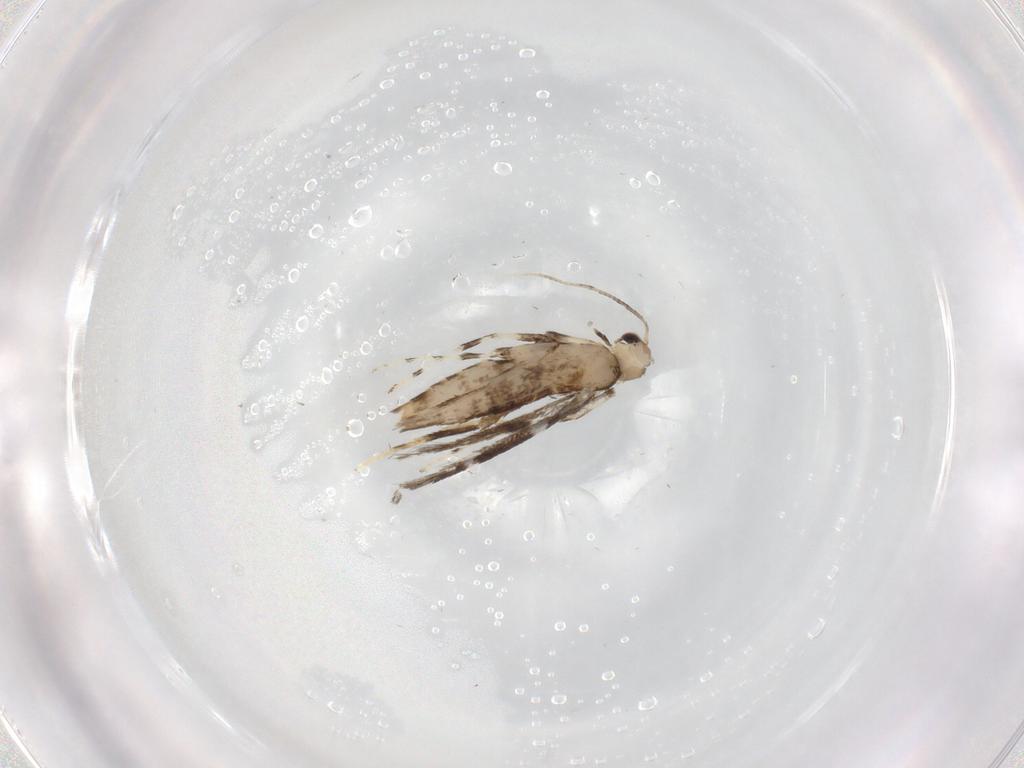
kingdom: Animalia
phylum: Arthropoda
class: Insecta
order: Lepidoptera
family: Gracillariidae
